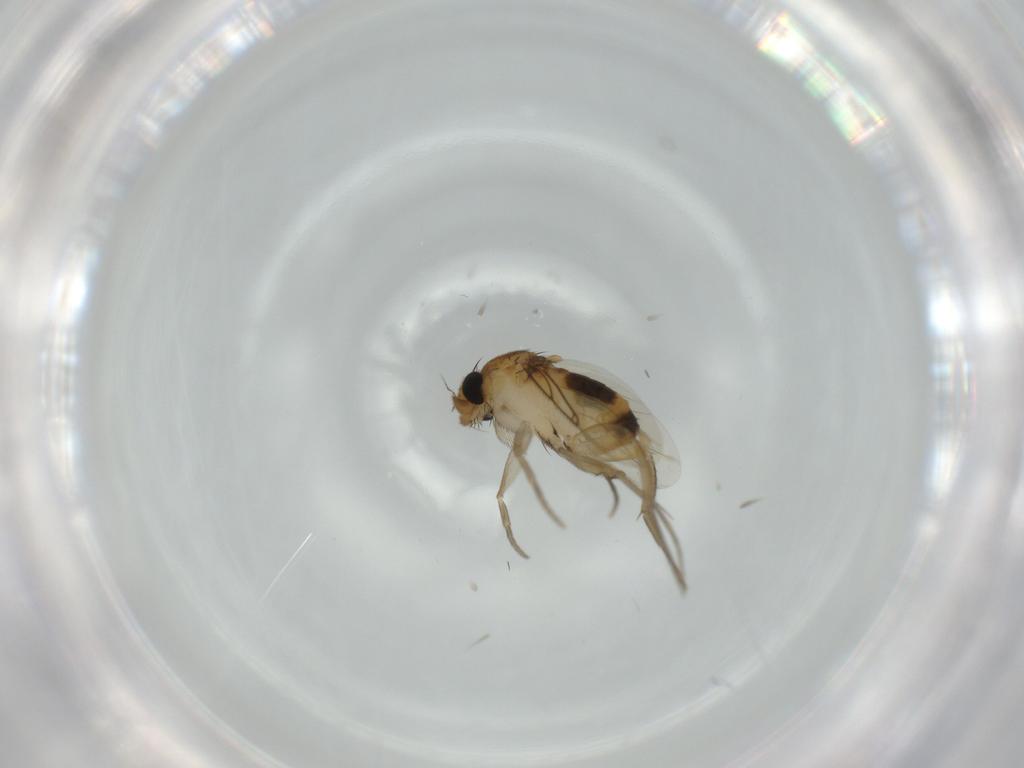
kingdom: Animalia
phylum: Arthropoda
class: Insecta
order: Diptera
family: Phoridae
